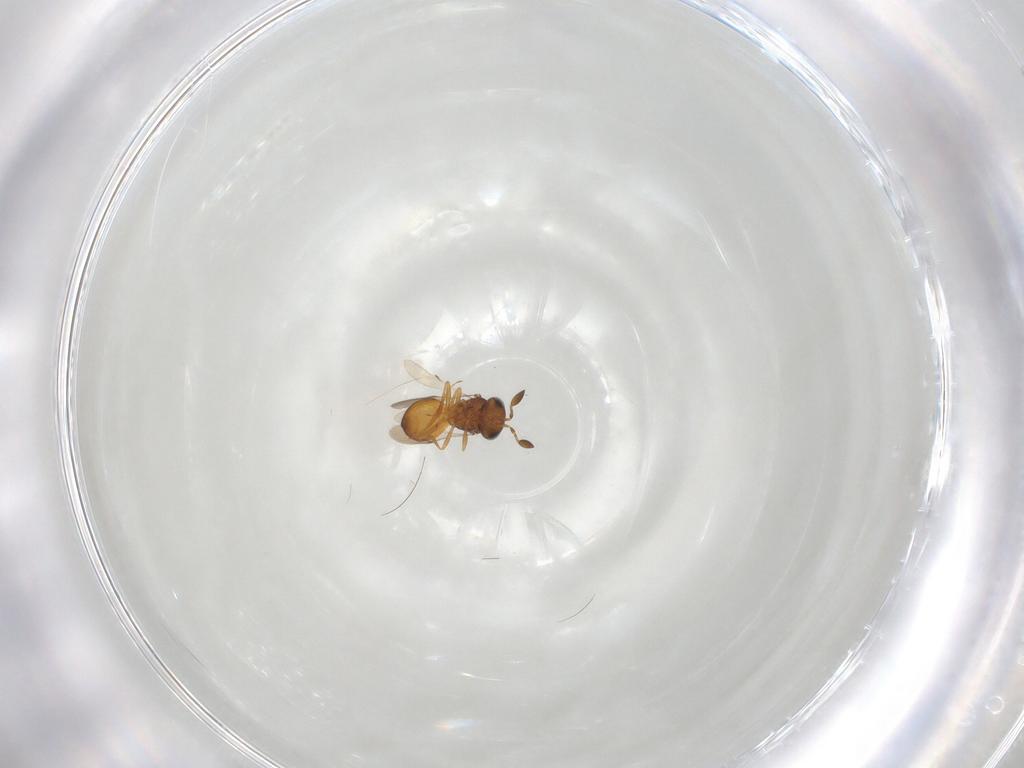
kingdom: Animalia
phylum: Arthropoda
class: Insecta
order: Hymenoptera
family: Scelionidae
